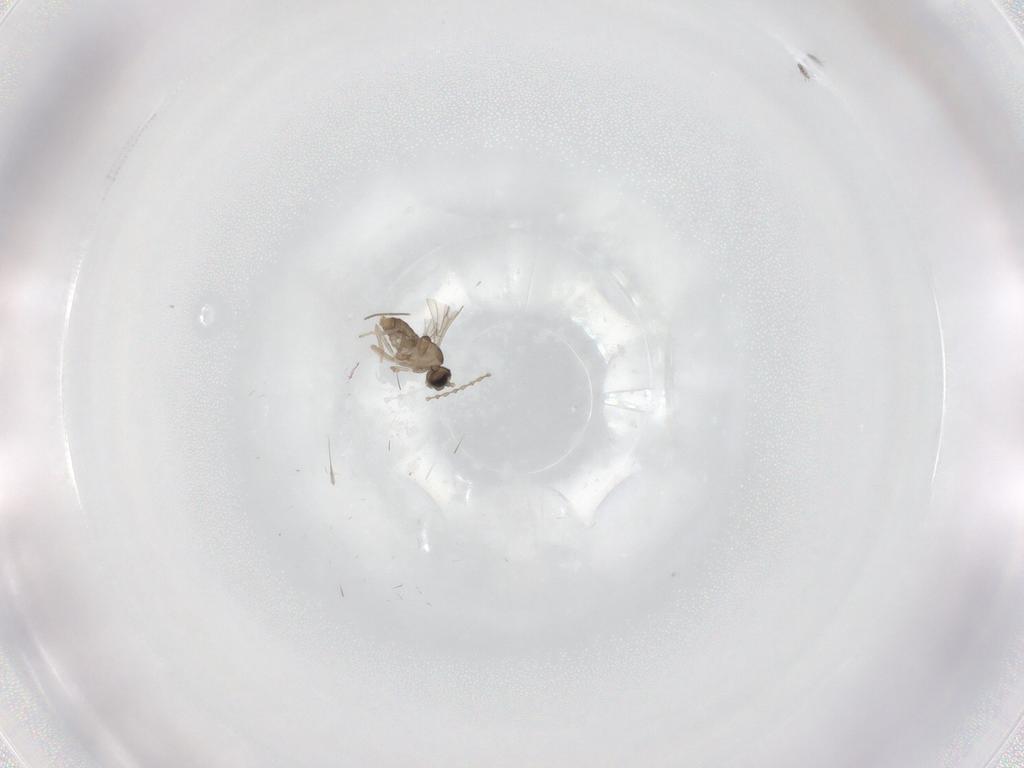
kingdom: Animalia
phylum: Arthropoda
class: Insecta
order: Diptera
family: Cecidomyiidae
